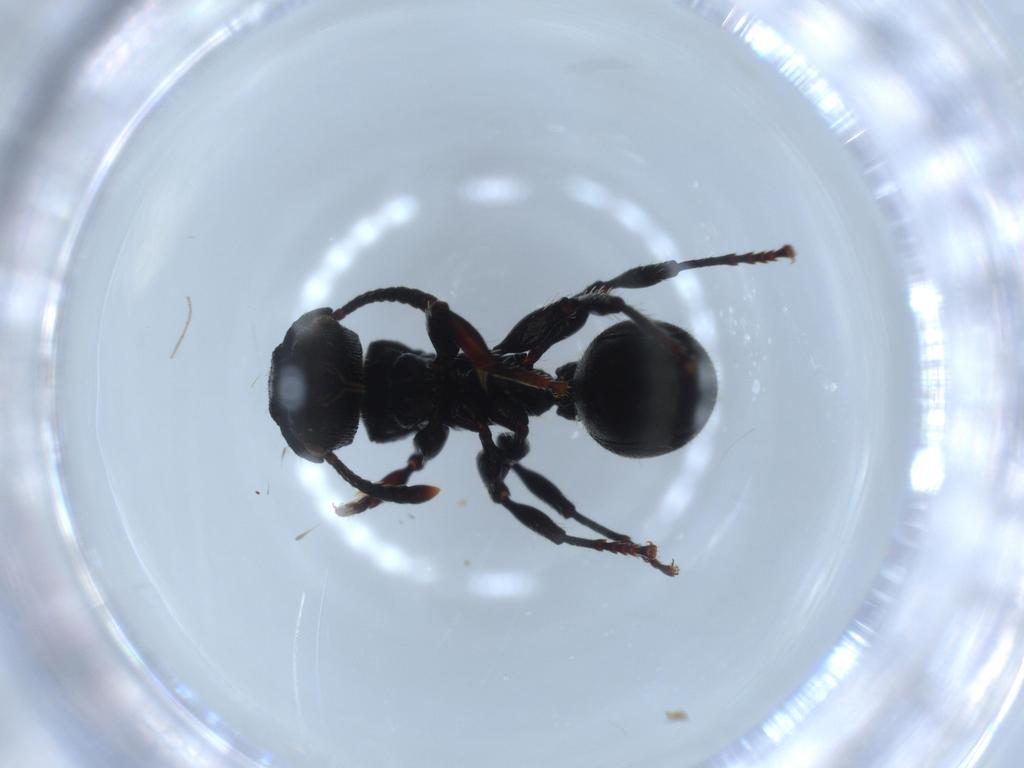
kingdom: Animalia
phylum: Arthropoda
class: Insecta
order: Hymenoptera
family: Formicidae
